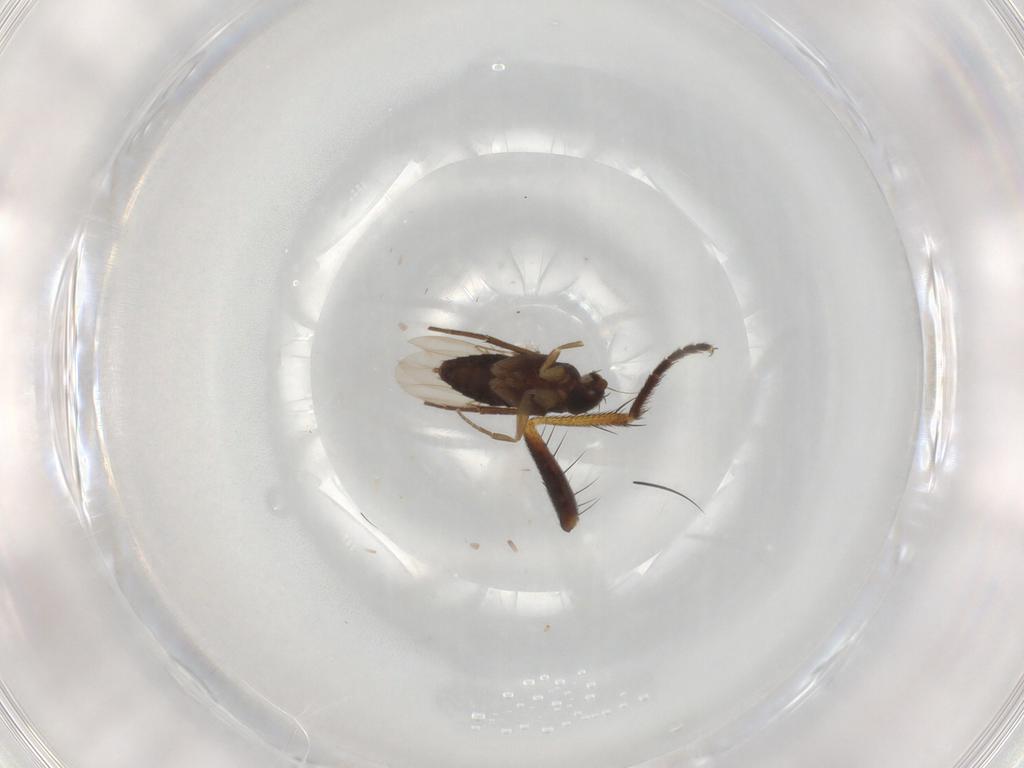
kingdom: Animalia
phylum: Arthropoda
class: Insecta
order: Diptera
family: Phoridae
